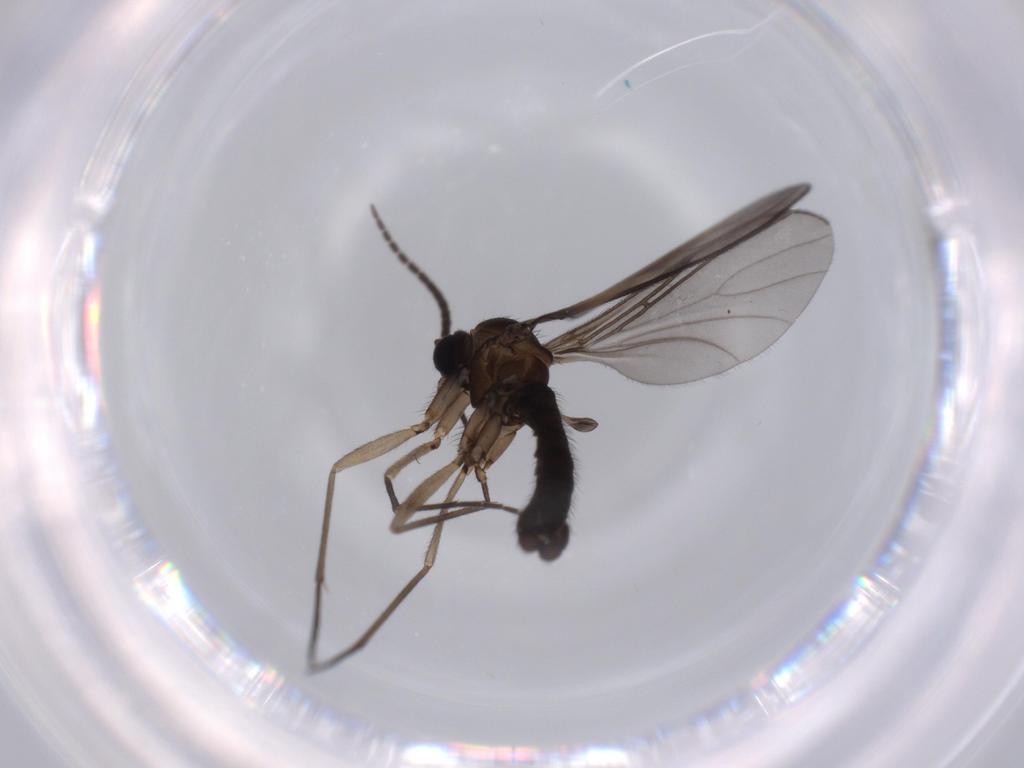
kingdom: Animalia
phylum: Arthropoda
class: Insecta
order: Diptera
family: Sciaridae
